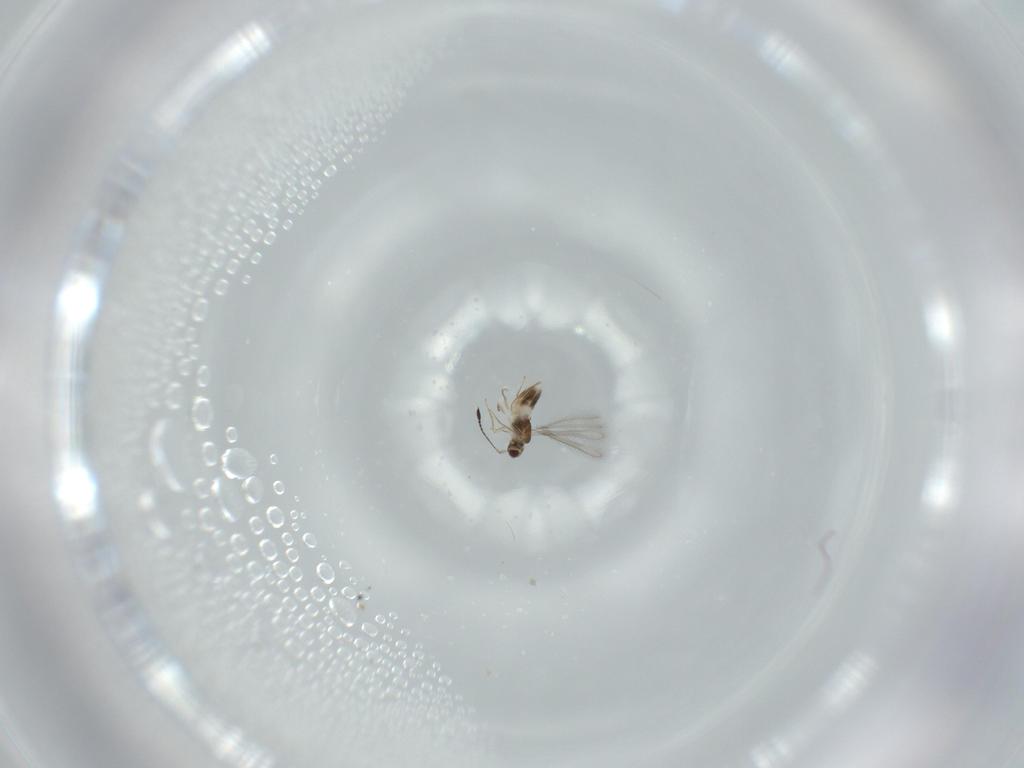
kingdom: Animalia
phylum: Arthropoda
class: Insecta
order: Hymenoptera
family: Mymaridae
